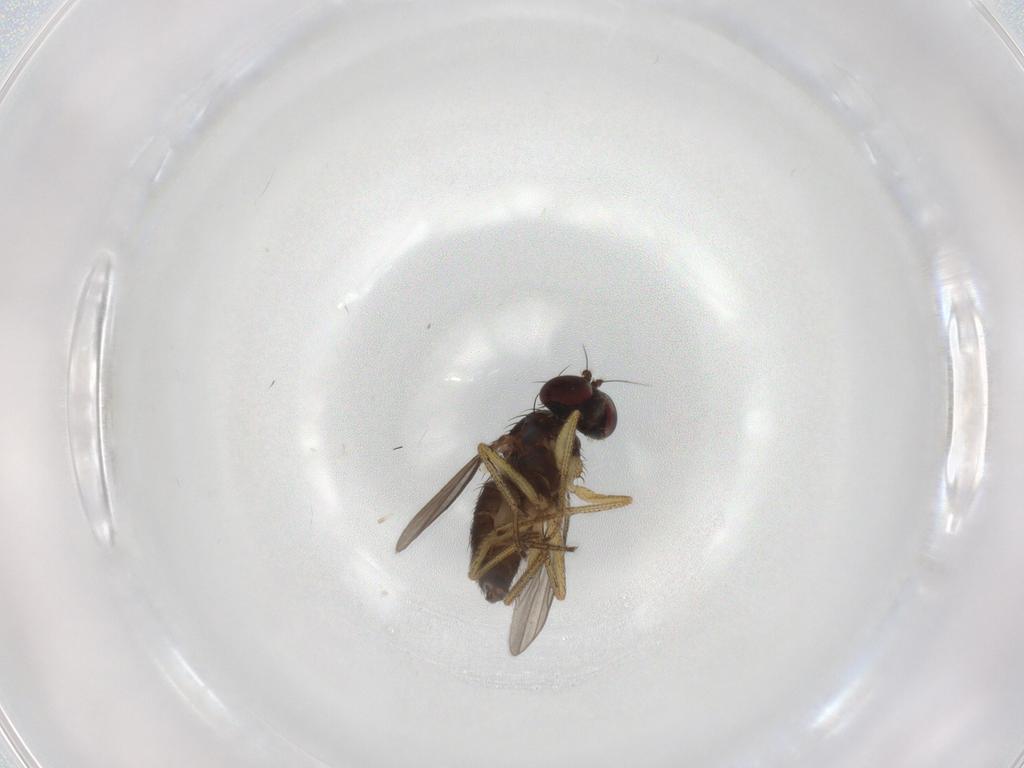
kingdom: Animalia
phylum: Arthropoda
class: Insecta
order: Diptera
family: Dolichopodidae
